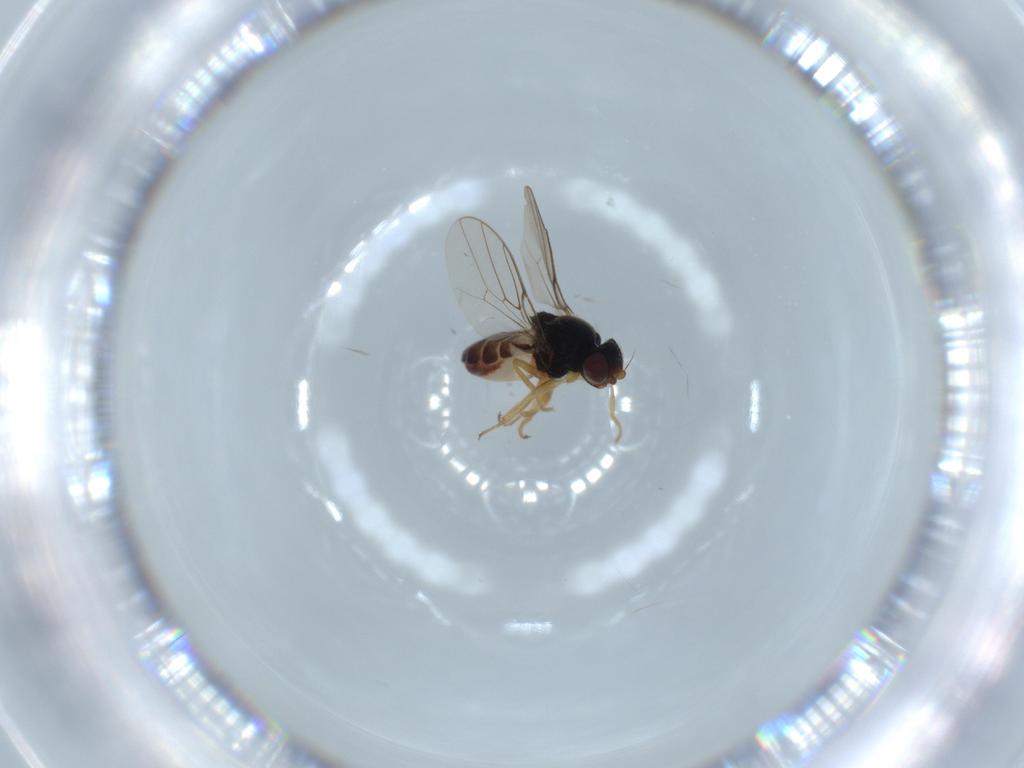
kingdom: Animalia
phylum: Arthropoda
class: Insecta
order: Diptera
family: Chloropidae
